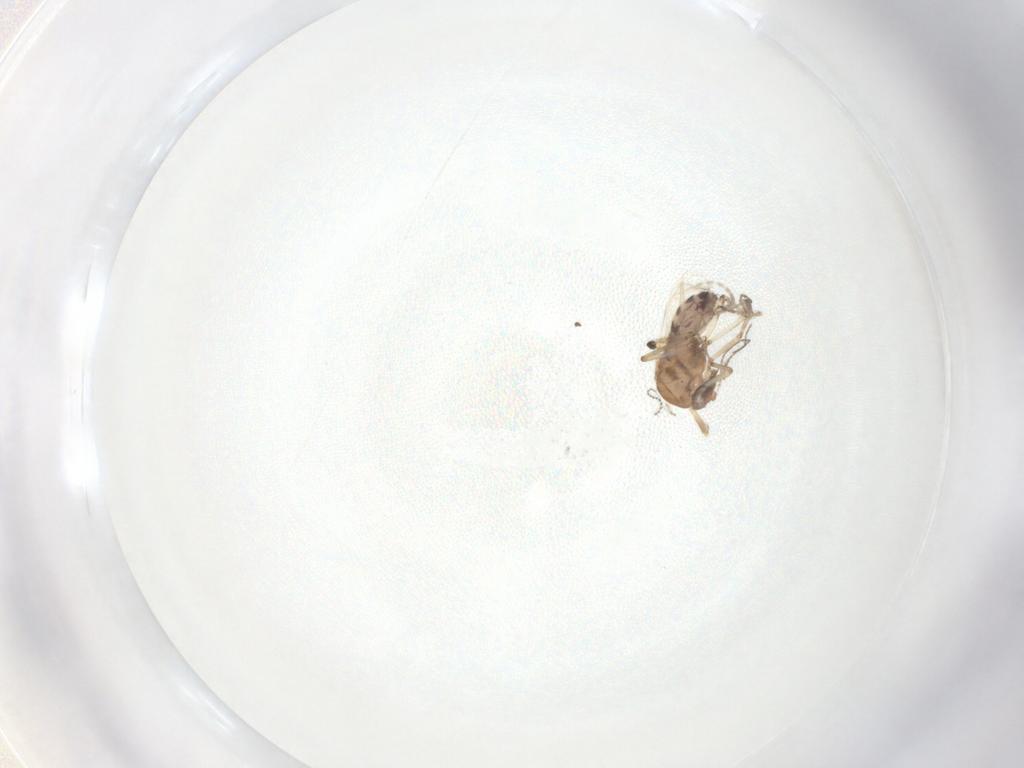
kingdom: Animalia
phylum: Arthropoda
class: Insecta
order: Diptera
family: Ceratopogonidae
